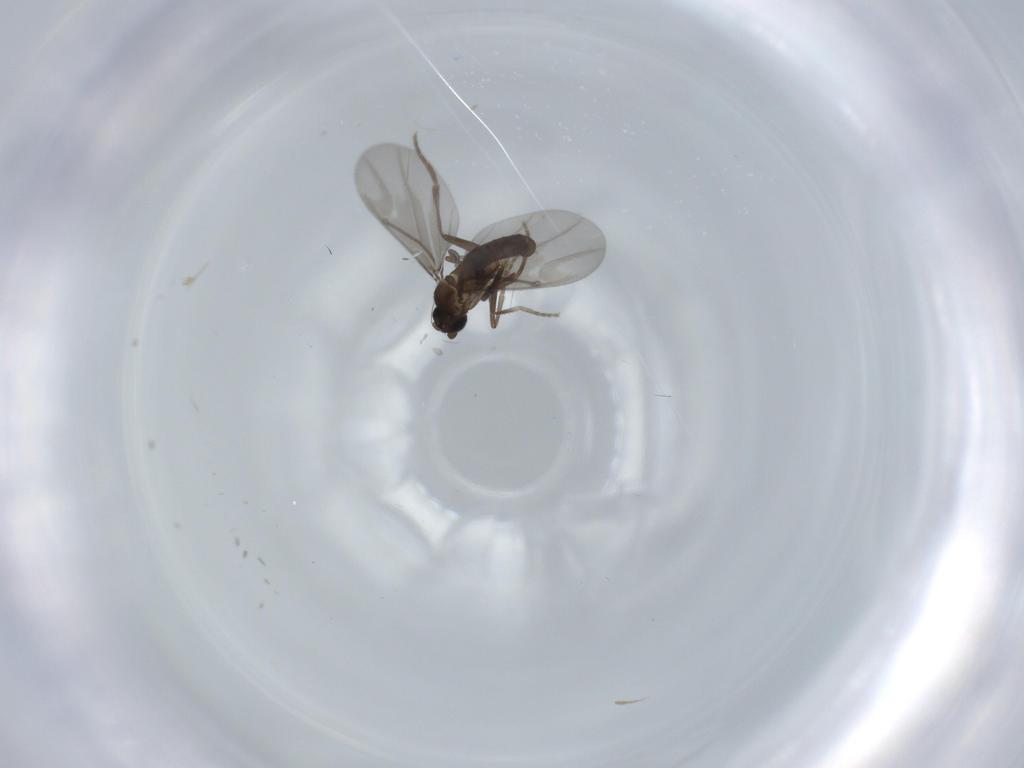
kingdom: Animalia
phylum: Arthropoda
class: Insecta
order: Diptera
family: Phoridae
